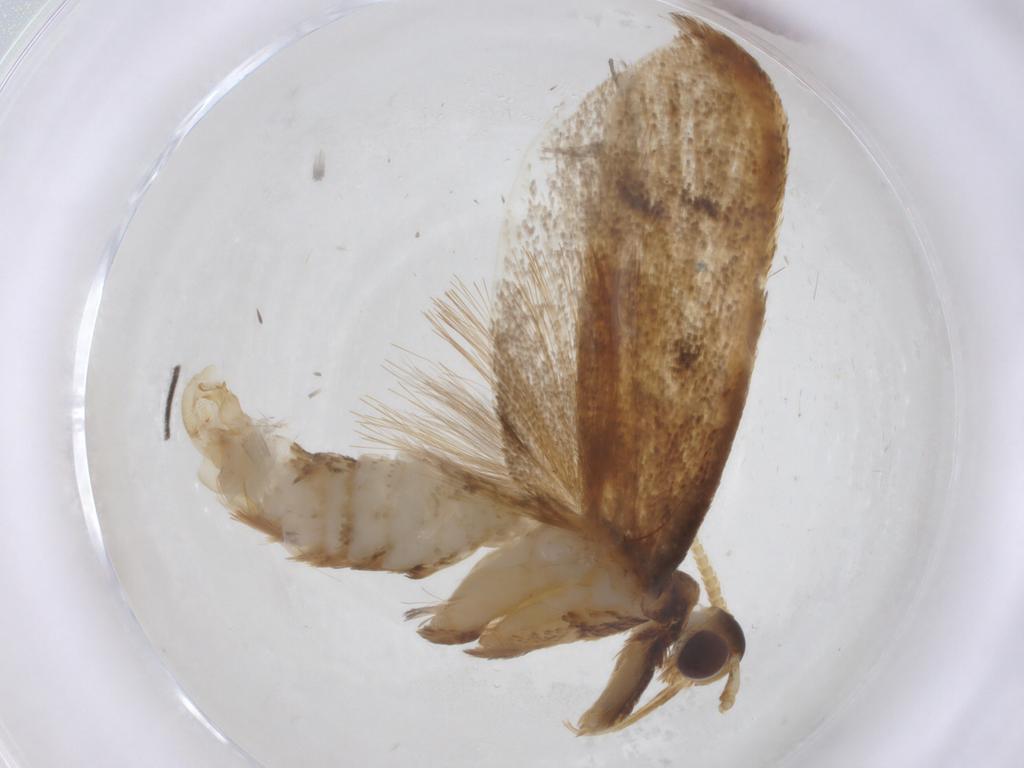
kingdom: Animalia
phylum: Arthropoda
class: Insecta
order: Lepidoptera
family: Lecithoceridae
